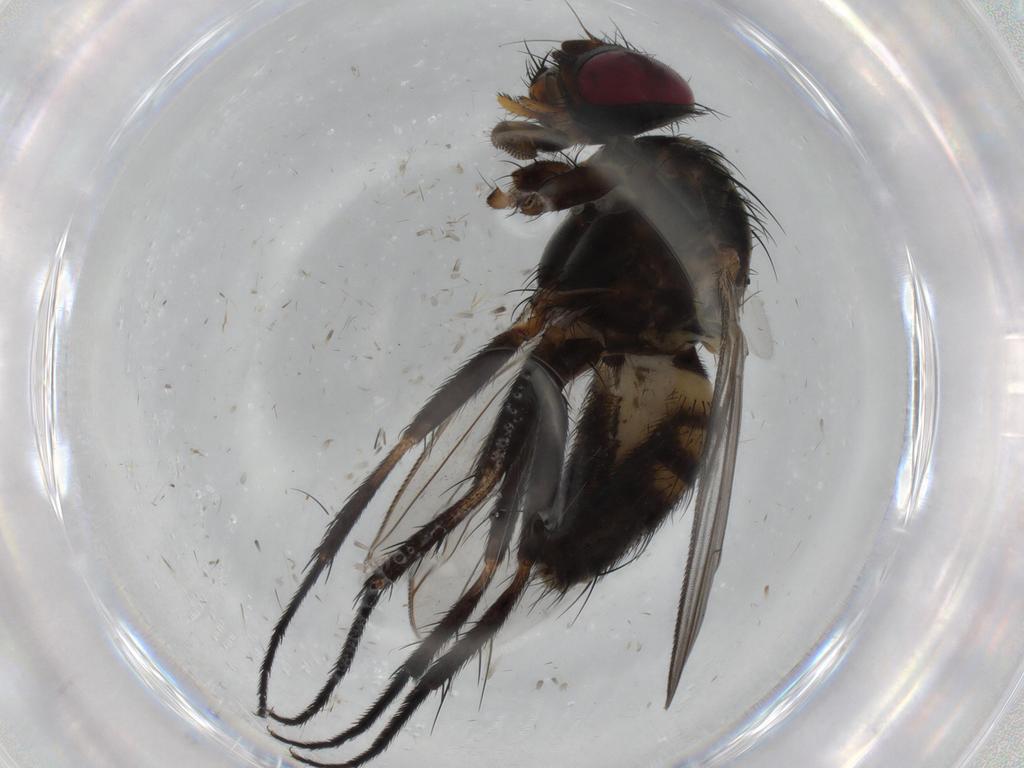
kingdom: Animalia
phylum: Arthropoda
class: Insecta
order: Diptera
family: Fannia
